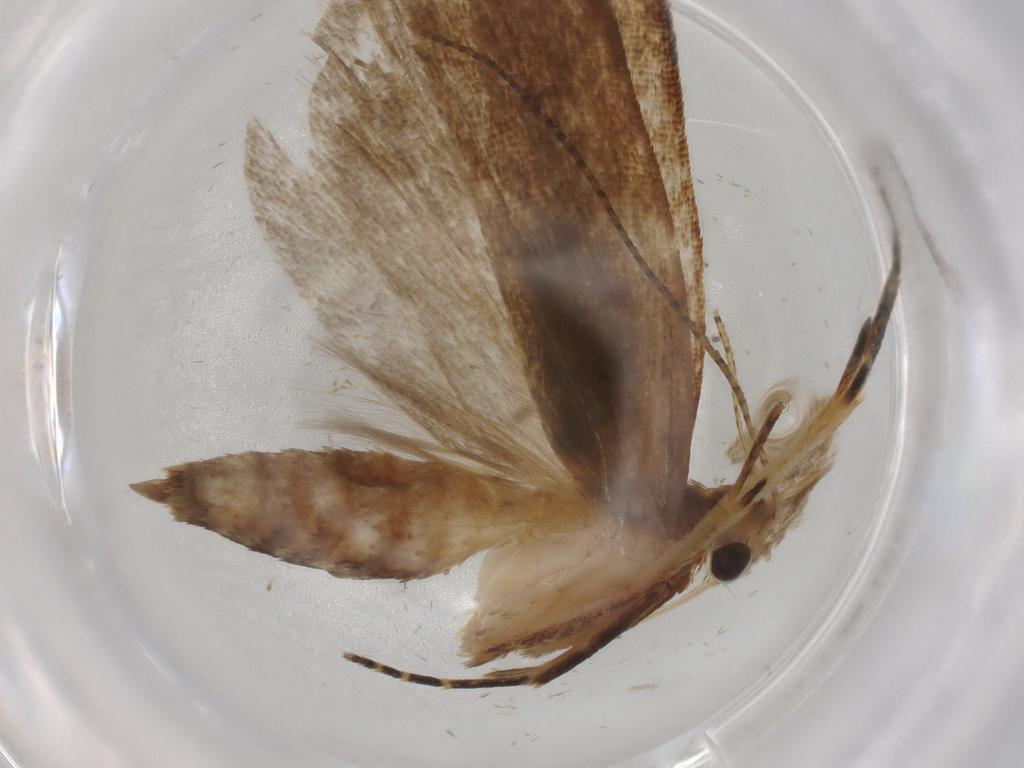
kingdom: Animalia
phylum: Arthropoda
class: Insecta
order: Lepidoptera
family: Gelechiidae
